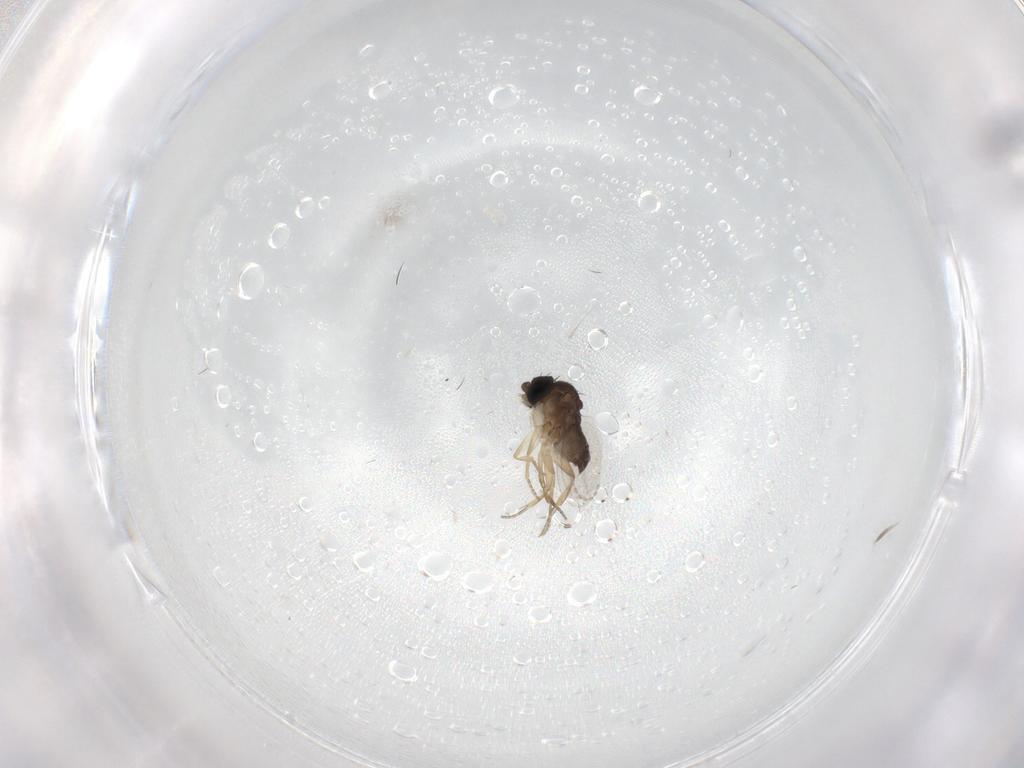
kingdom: Animalia
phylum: Arthropoda
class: Insecta
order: Diptera
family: Phoridae
